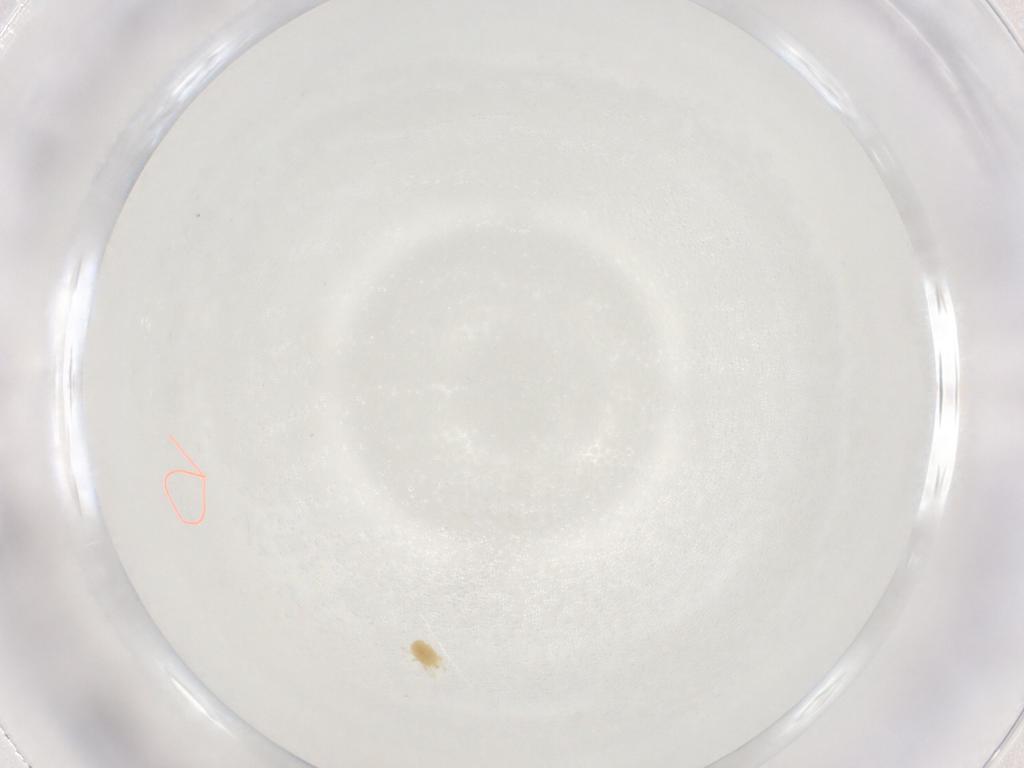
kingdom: Animalia
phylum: Arthropoda
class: Arachnida
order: Trombidiformes
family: Tetranychidae
